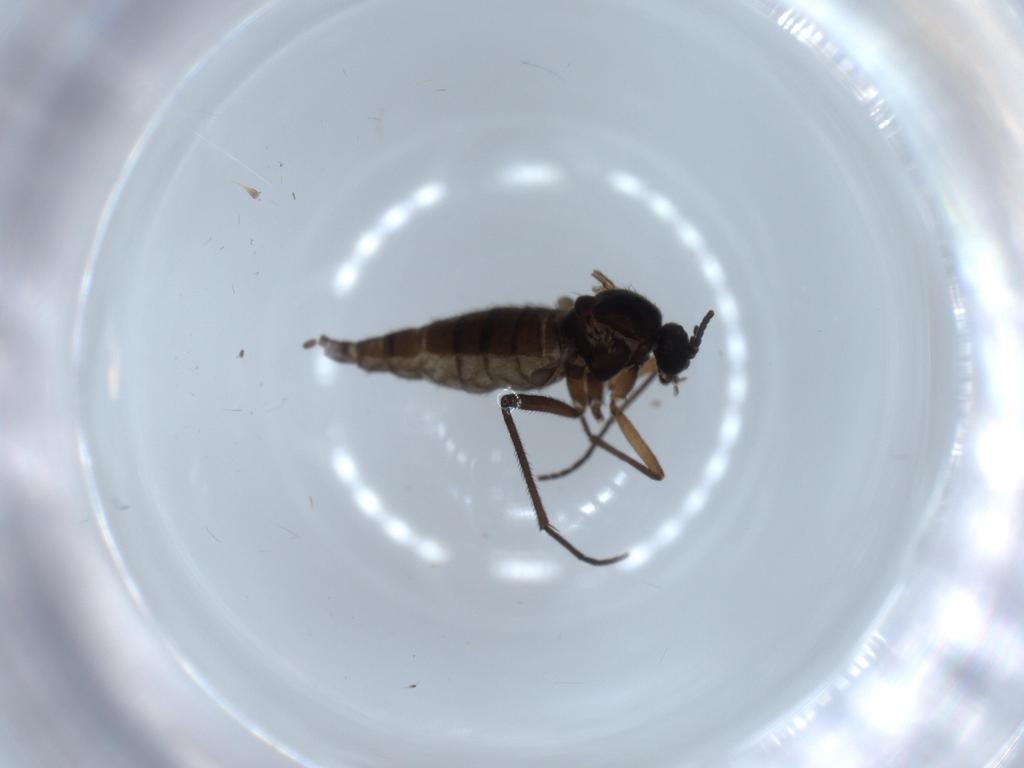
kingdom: Animalia
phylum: Arthropoda
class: Insecta
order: Diptera
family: Sciaridae
